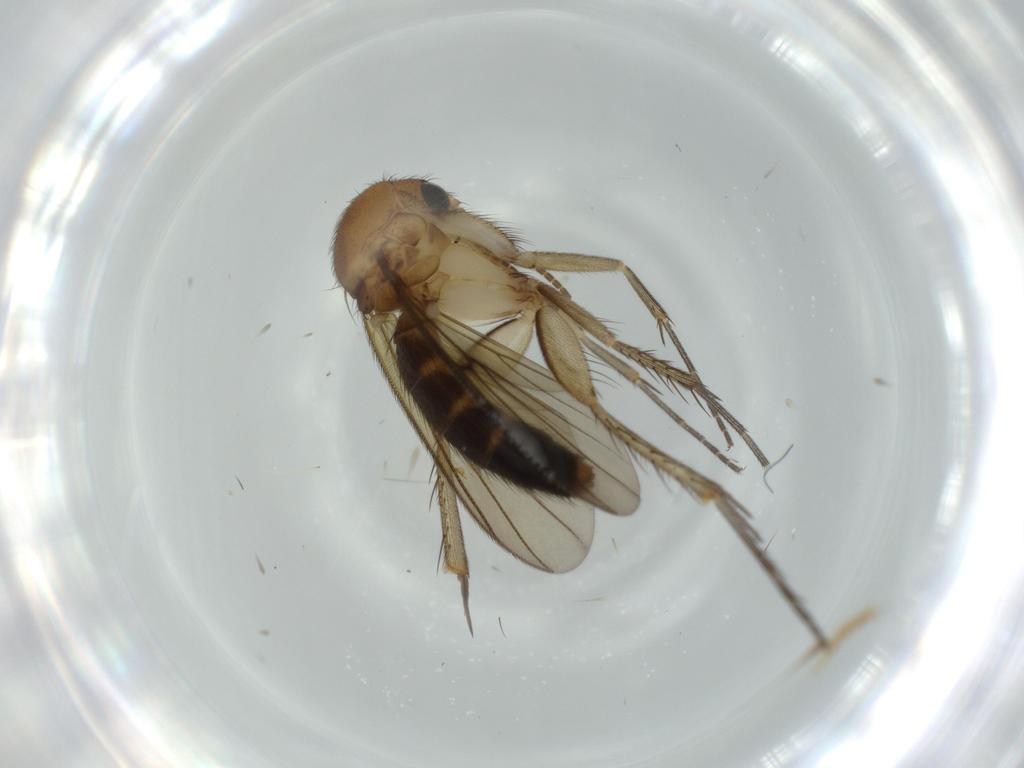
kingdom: Animalia
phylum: Arthropoda
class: Insecta
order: Diptera
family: Mycetophilidae
